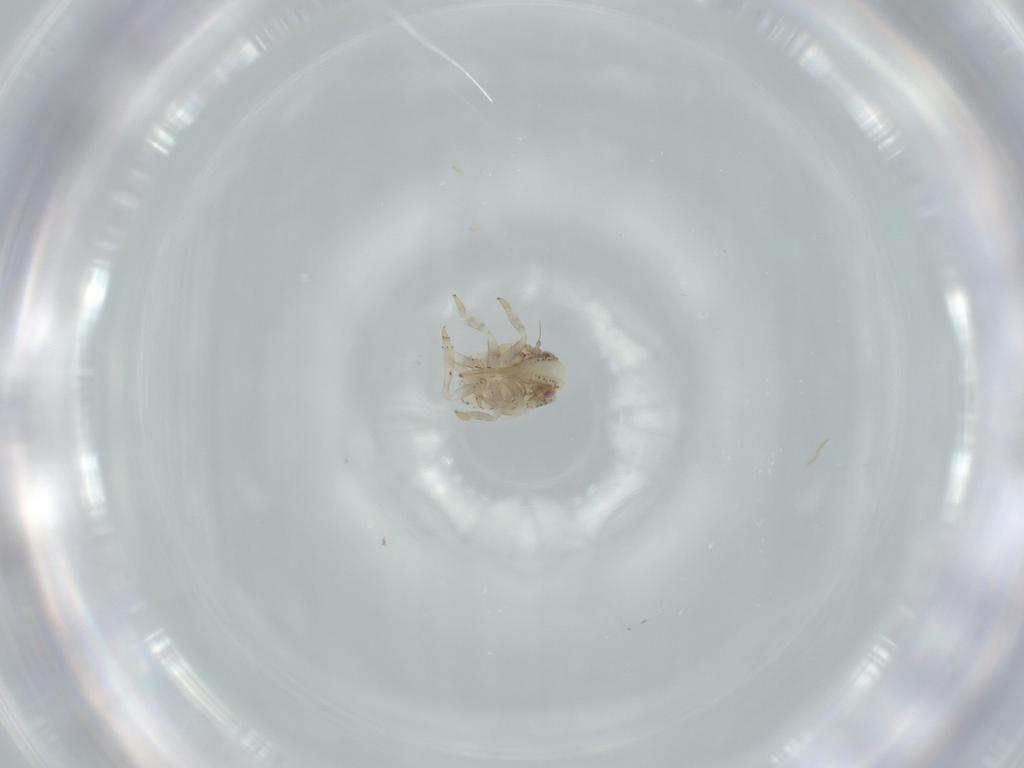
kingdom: Animalia
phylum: Arthropoda
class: Insecta
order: Hemiptera
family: Acanaloniidae
